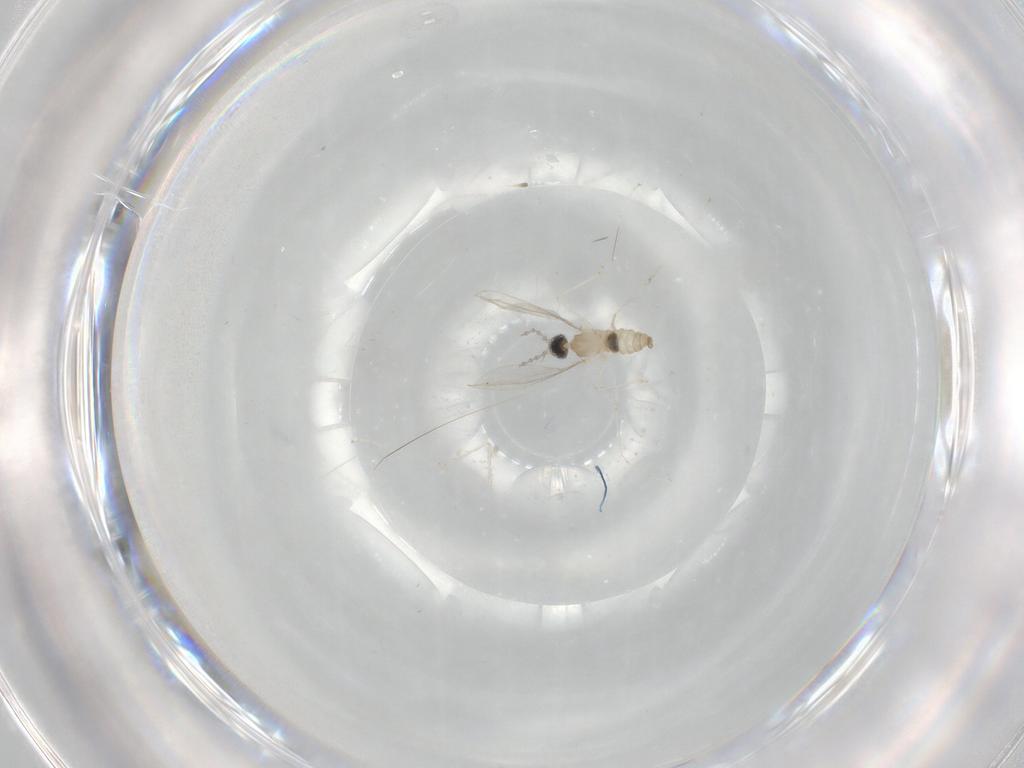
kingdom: Animalia
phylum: Arthropoda
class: Insecta
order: Diptera
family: Cecidomyiidae
